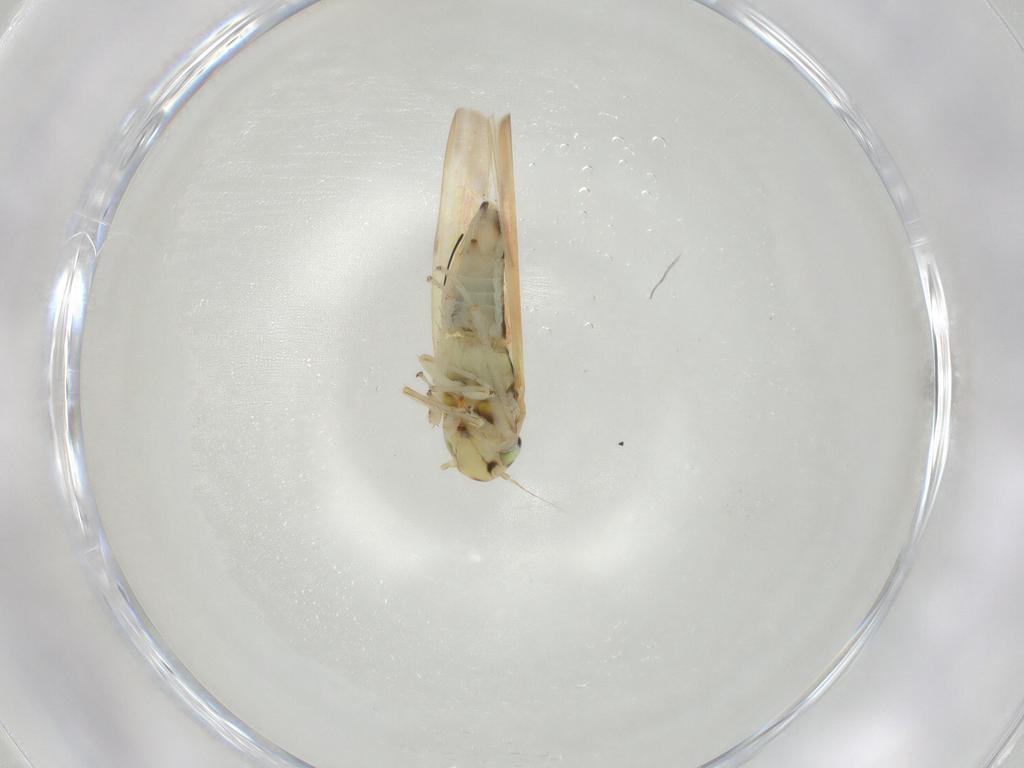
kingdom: Animalia
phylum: Arthropoda
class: Insecta
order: Hemiptera
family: Cicadellidae
